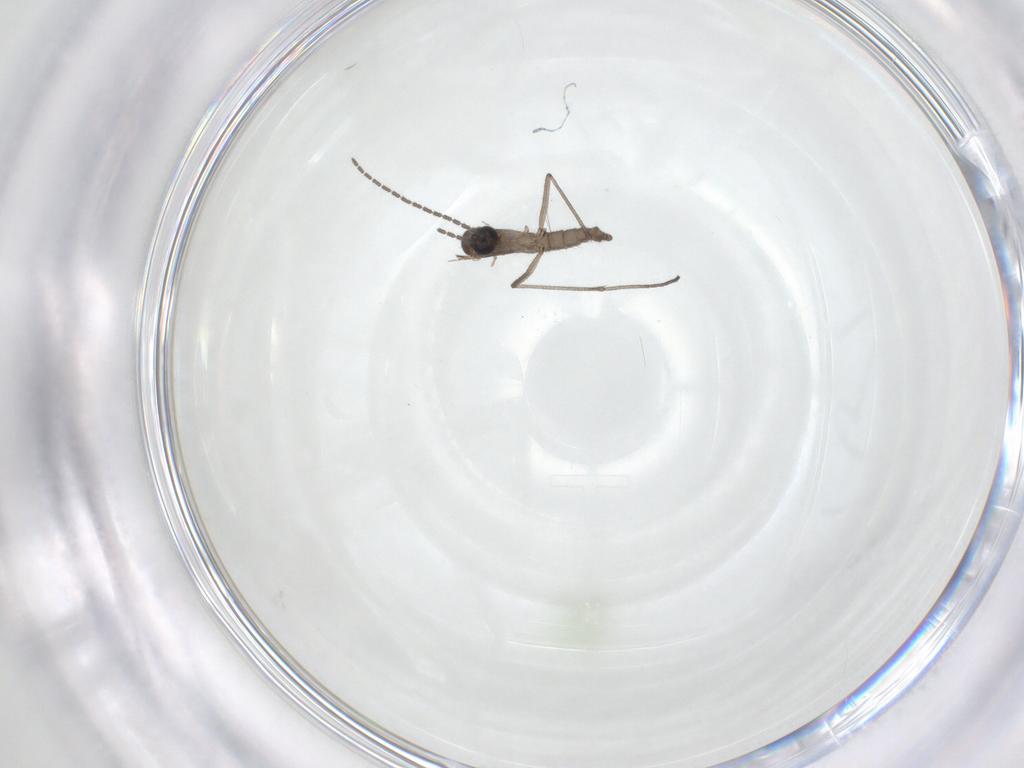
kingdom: Animalia
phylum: Arthropoda
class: Insecta
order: Diptera
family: Sciaridae
